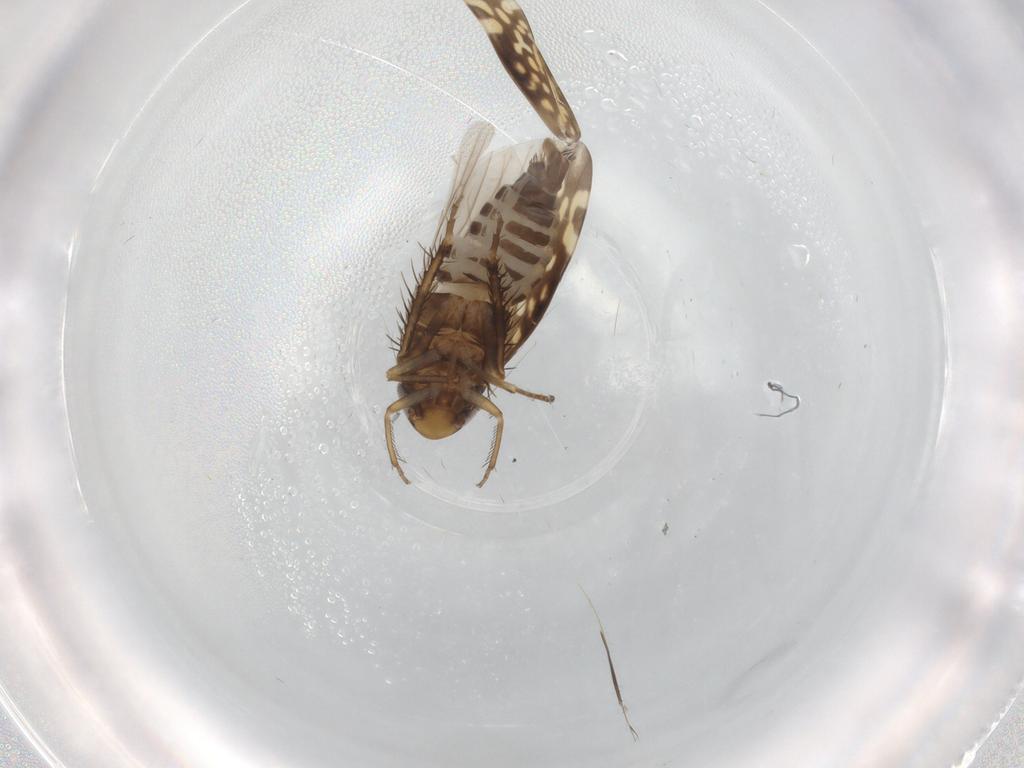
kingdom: Animalia
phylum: Arthropoda
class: Insecta
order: Hemiptera
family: Cicadellidae
